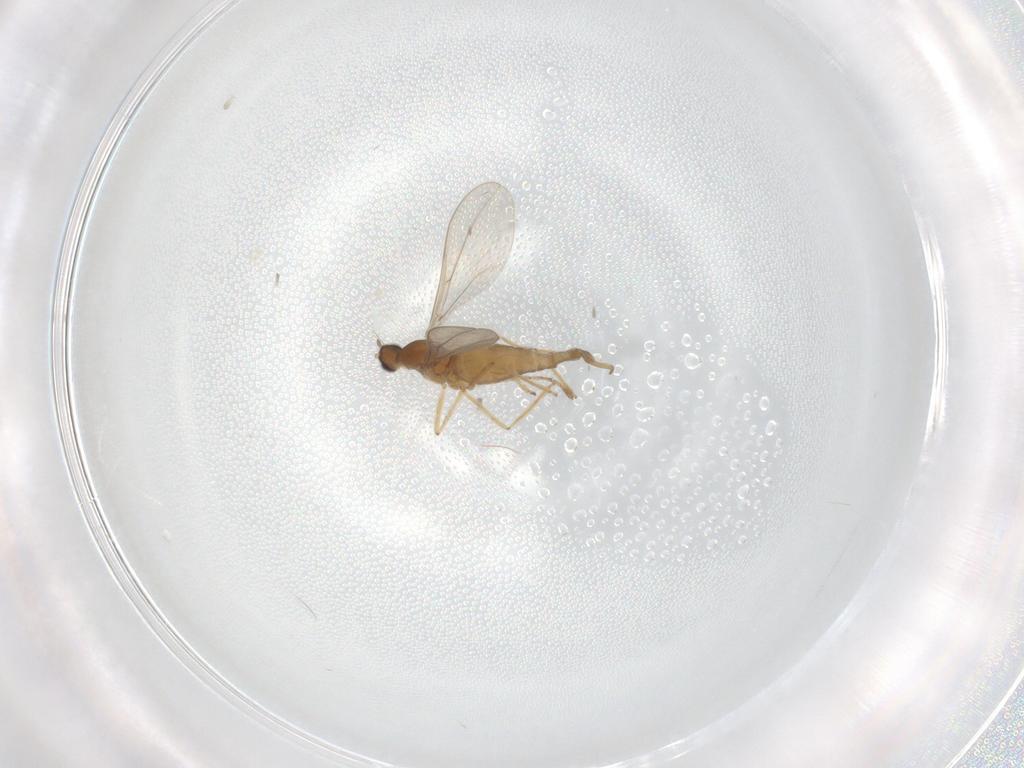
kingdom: Animalia
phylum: Arthropoda
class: Insecta
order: Diptera
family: Cecidomyiidae
